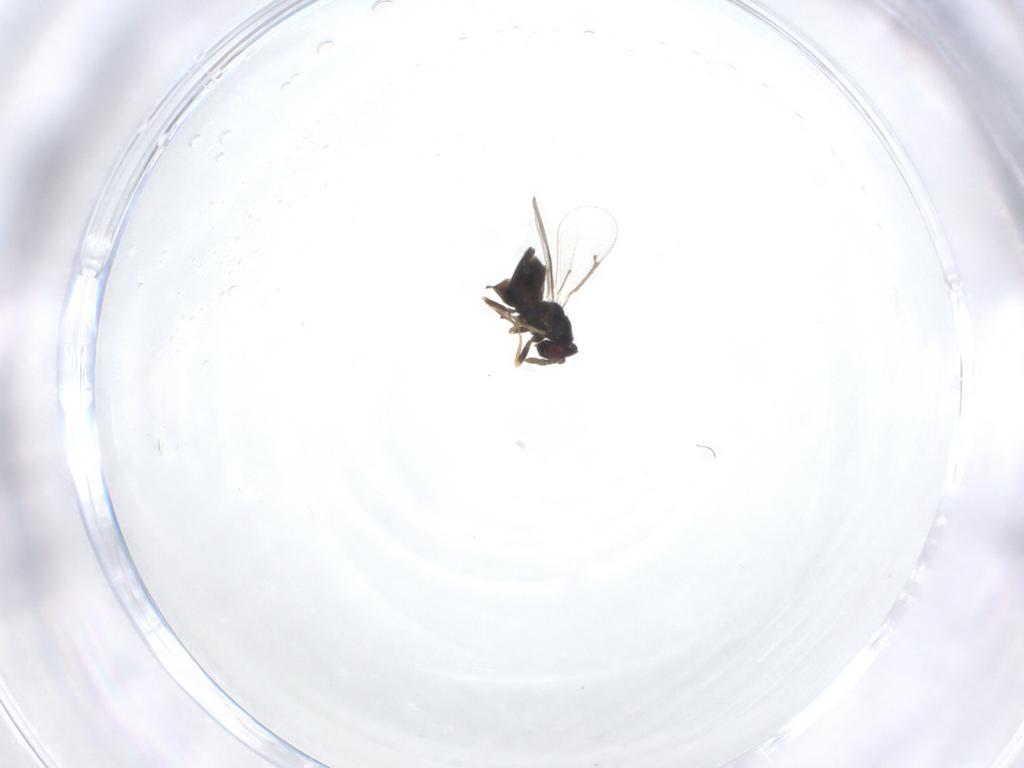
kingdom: Animalia
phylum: Arthropoda
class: Insecta
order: Hymenoptera
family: Eulophidae
